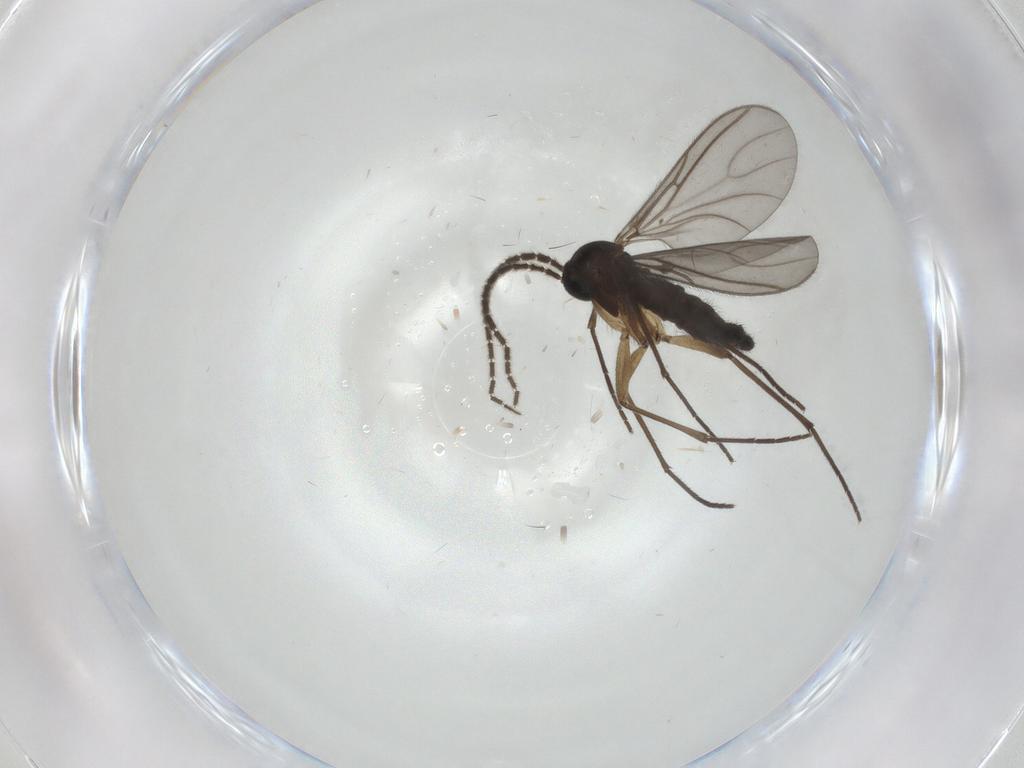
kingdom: Animalia
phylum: Arthropoda
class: Insecta
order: Diptera
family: Sciaridae
